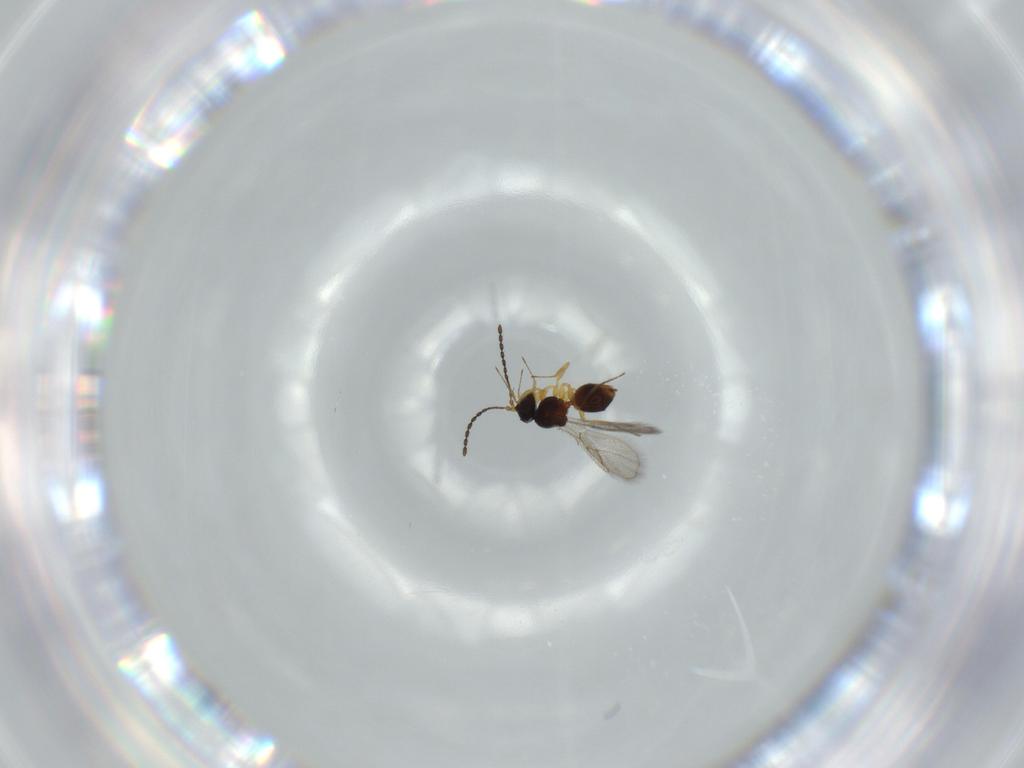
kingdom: Animalia
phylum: Arthropoda
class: Insecta
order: Hymenoptera
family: Figitidae
